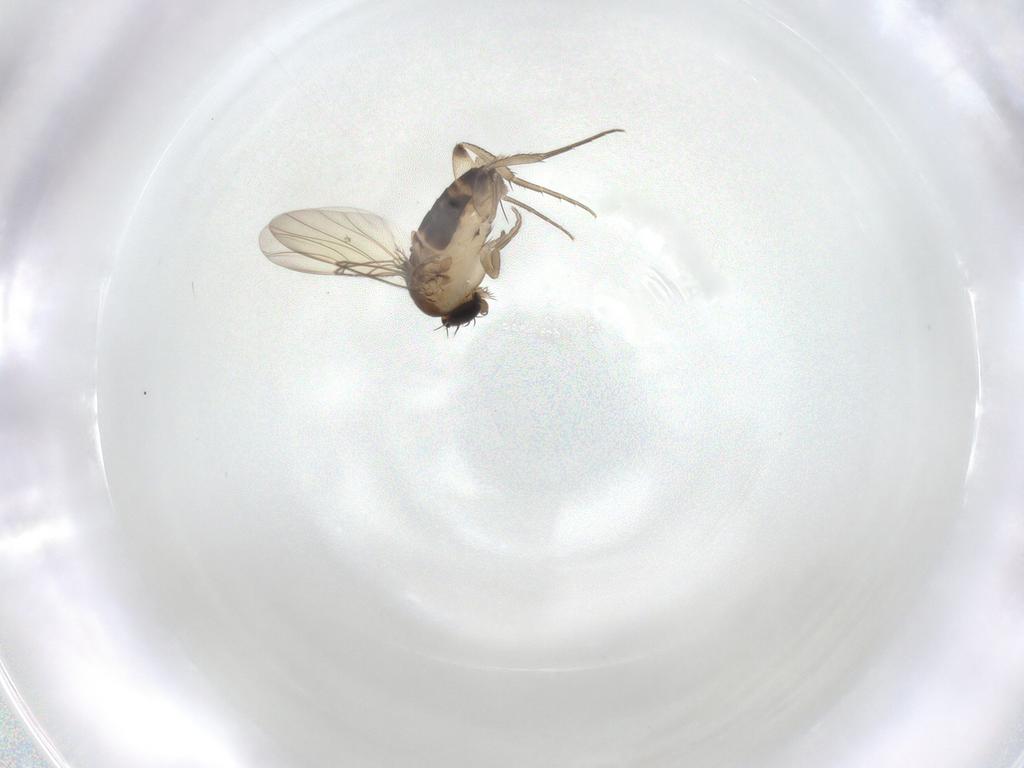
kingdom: Animalia
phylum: Arthropoda
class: Insecta
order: Diptera
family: Phoridae
